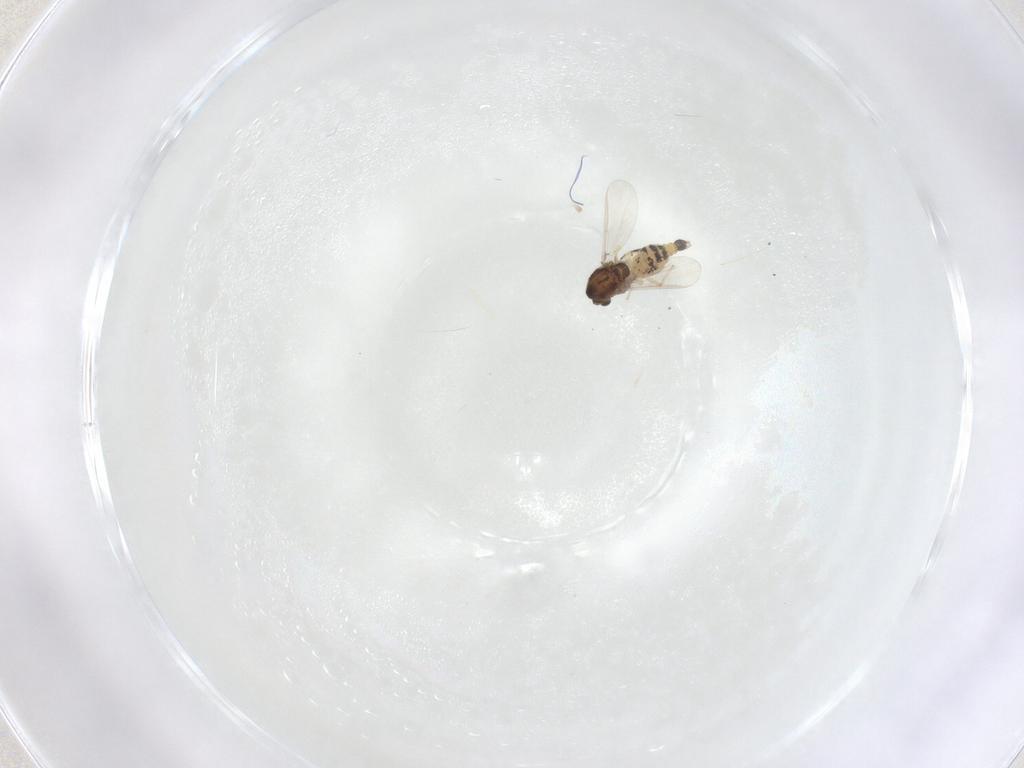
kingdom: Animalia
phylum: Arthropoda
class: Insecta
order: Diptera
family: Chironomidae
